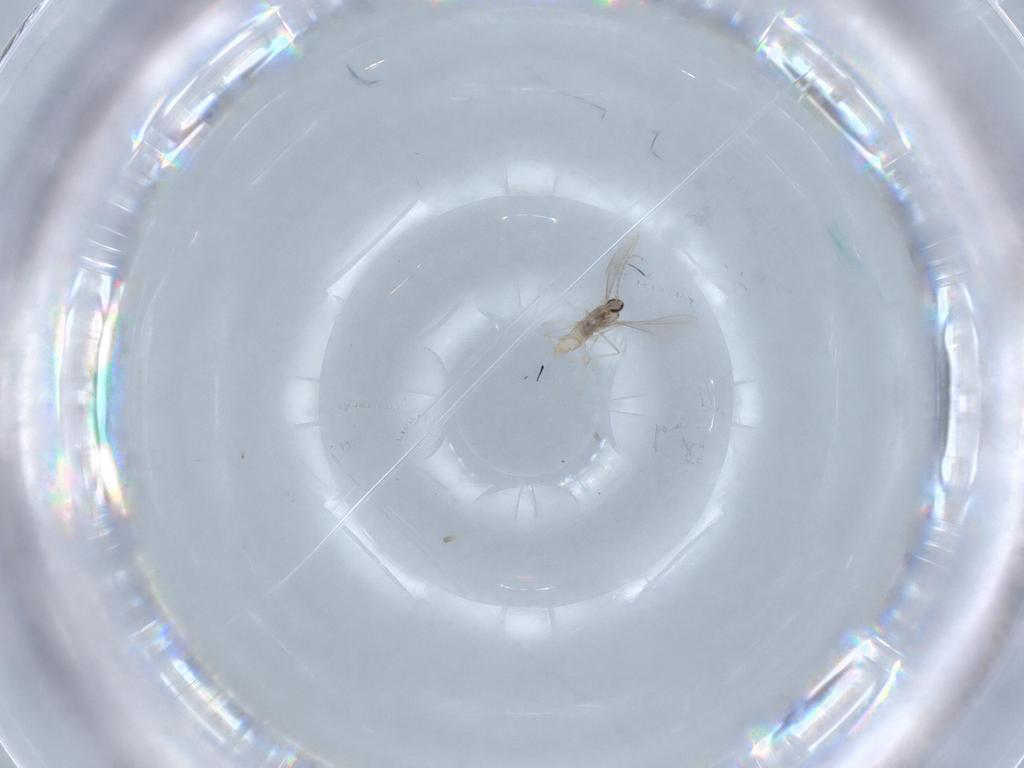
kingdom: Animalia
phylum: Arthropoda
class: Insecta
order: Diptera
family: Cecidomyiidae
